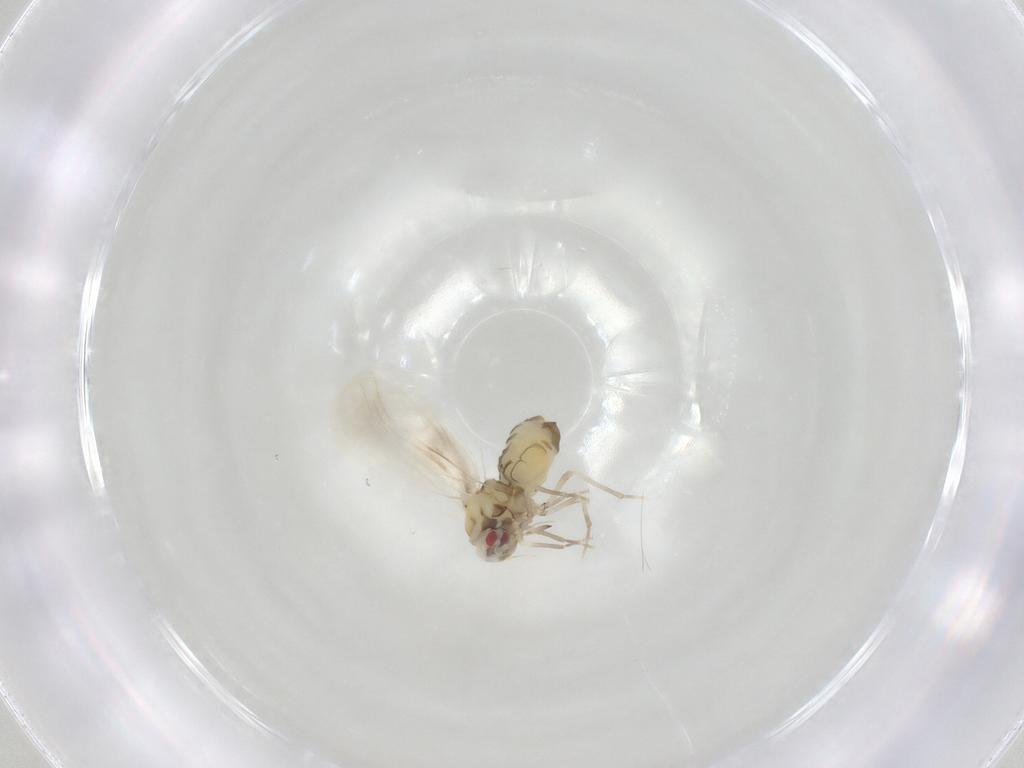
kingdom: Animalia
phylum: Arthropoda
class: Insecta
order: Hemiptera
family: Aleyrodidae
